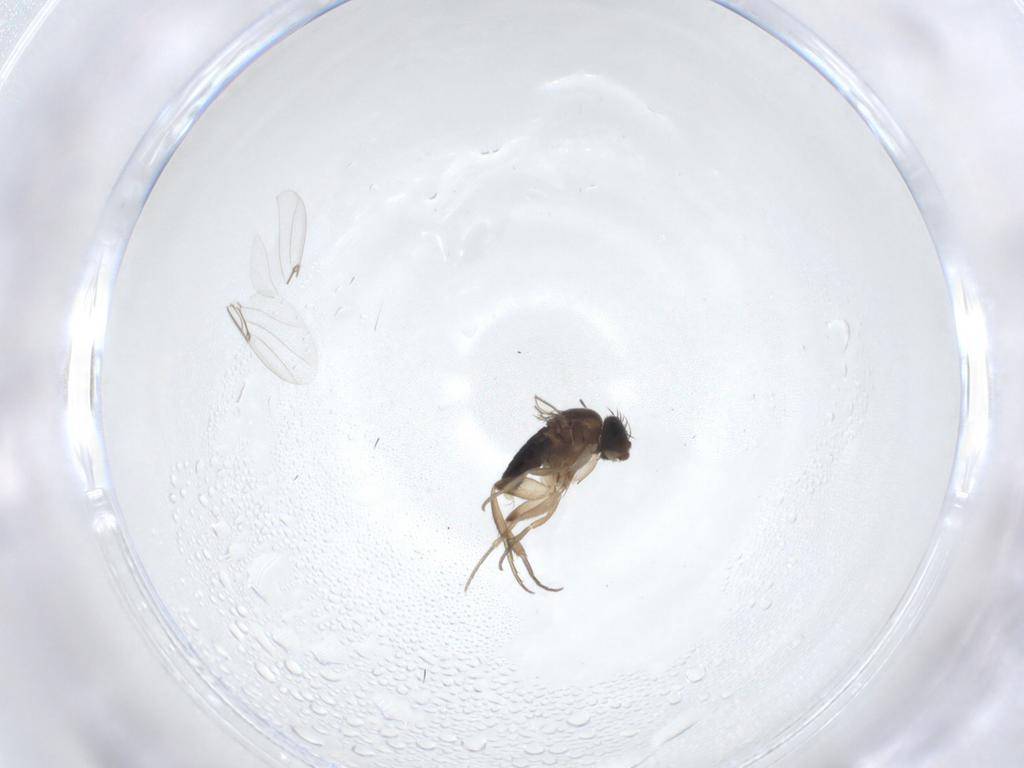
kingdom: Animalia
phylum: Arthropoda
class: Insecta
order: Diptera
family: Phoridae
